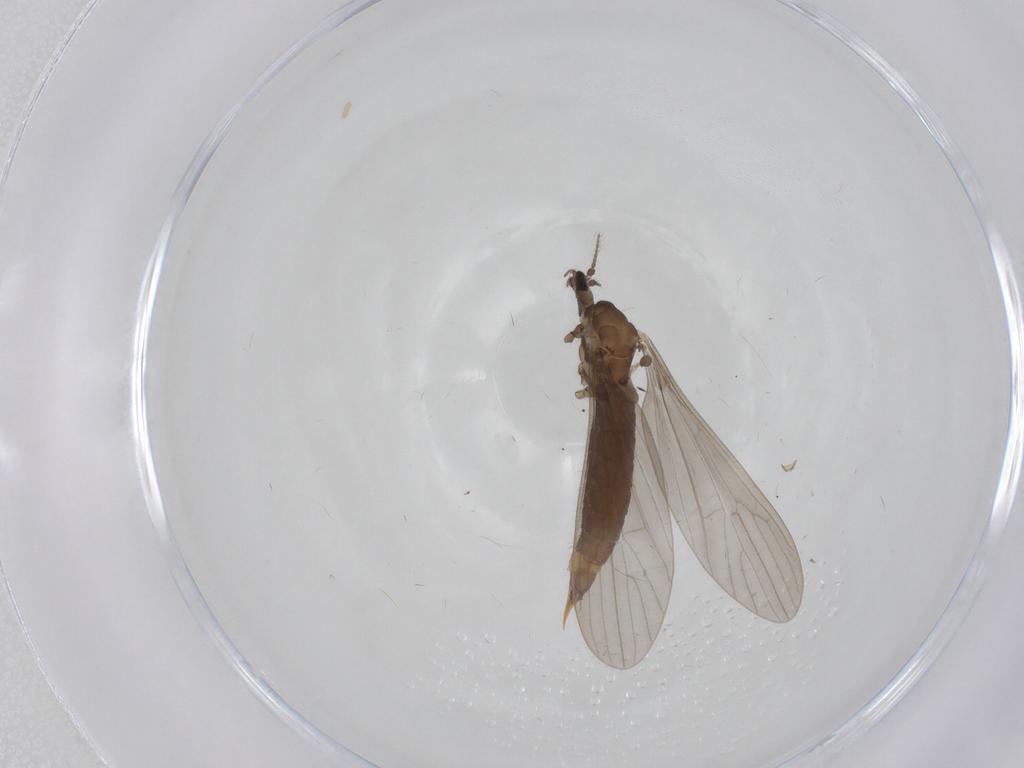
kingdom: Animalia
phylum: Arthropoda
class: Insecta
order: Diptera
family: Limoniidae
